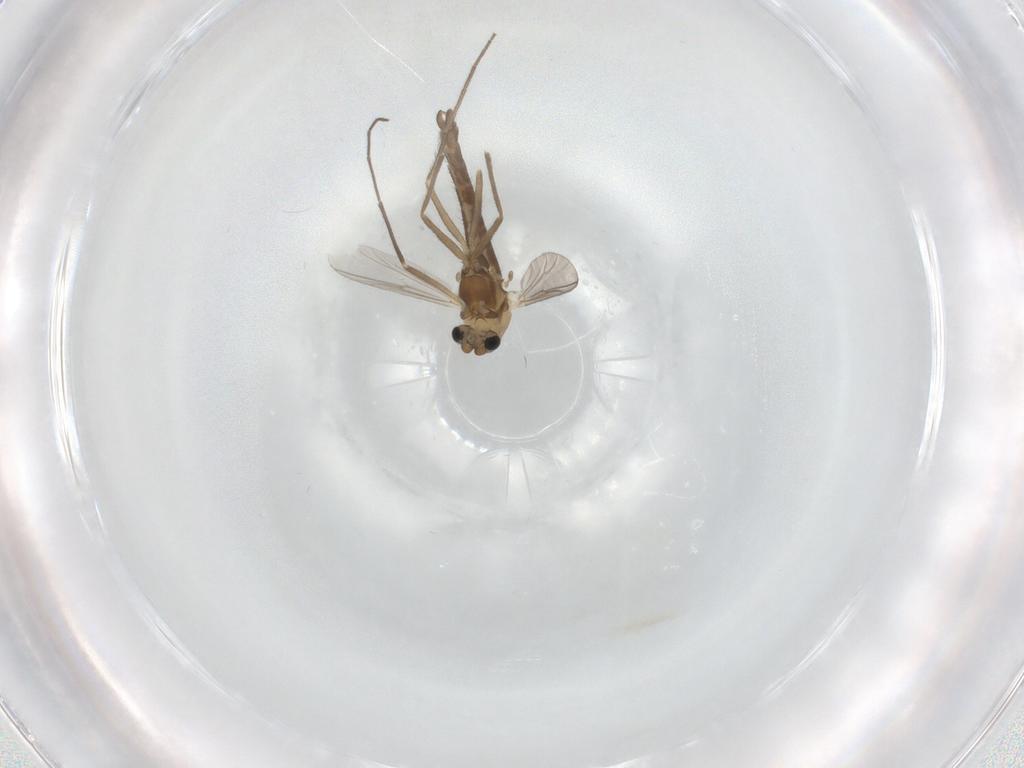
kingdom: Animalia
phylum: Arthropoda
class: Insecta
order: Diptera
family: Chironomidae
